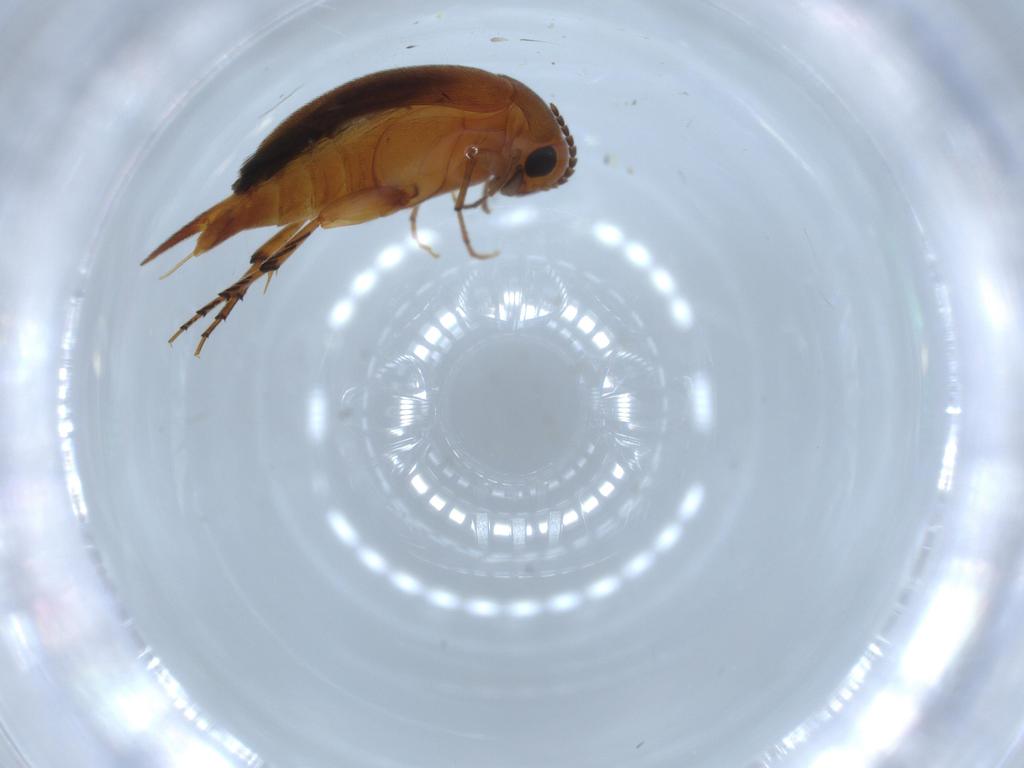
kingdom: Animalia
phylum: Arthropoda
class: Insecta
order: Coleoptera
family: Mordellidae
